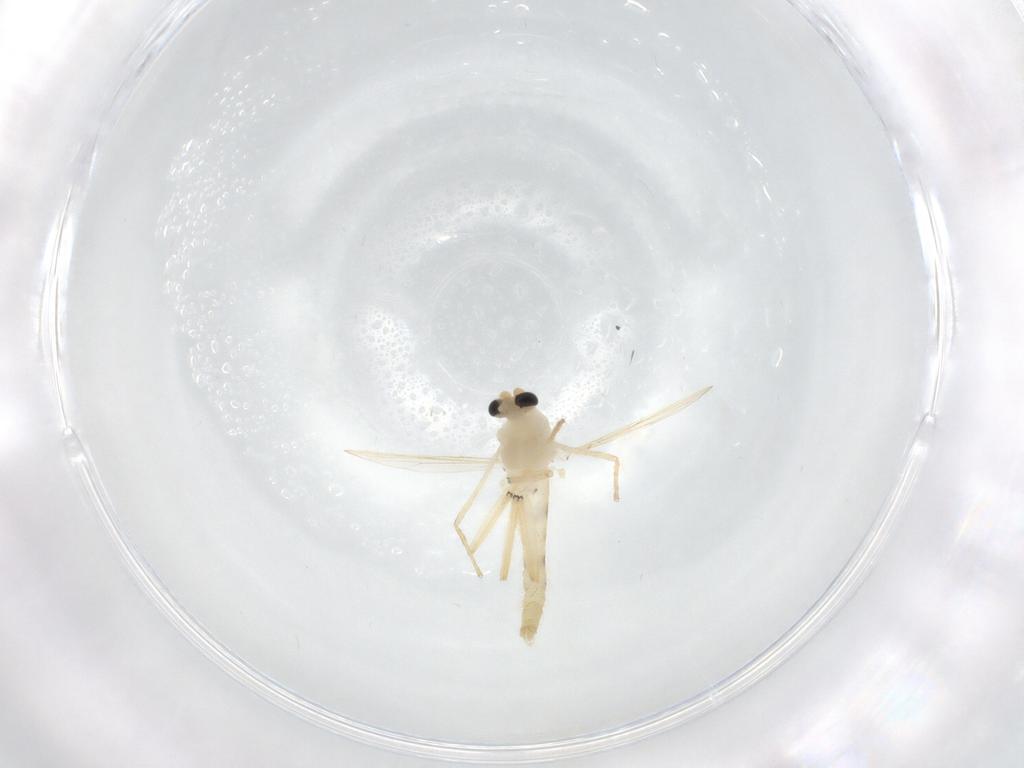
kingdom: Animalia
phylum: Arthropoda
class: Insecta
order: Diptera
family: Chironomidae
